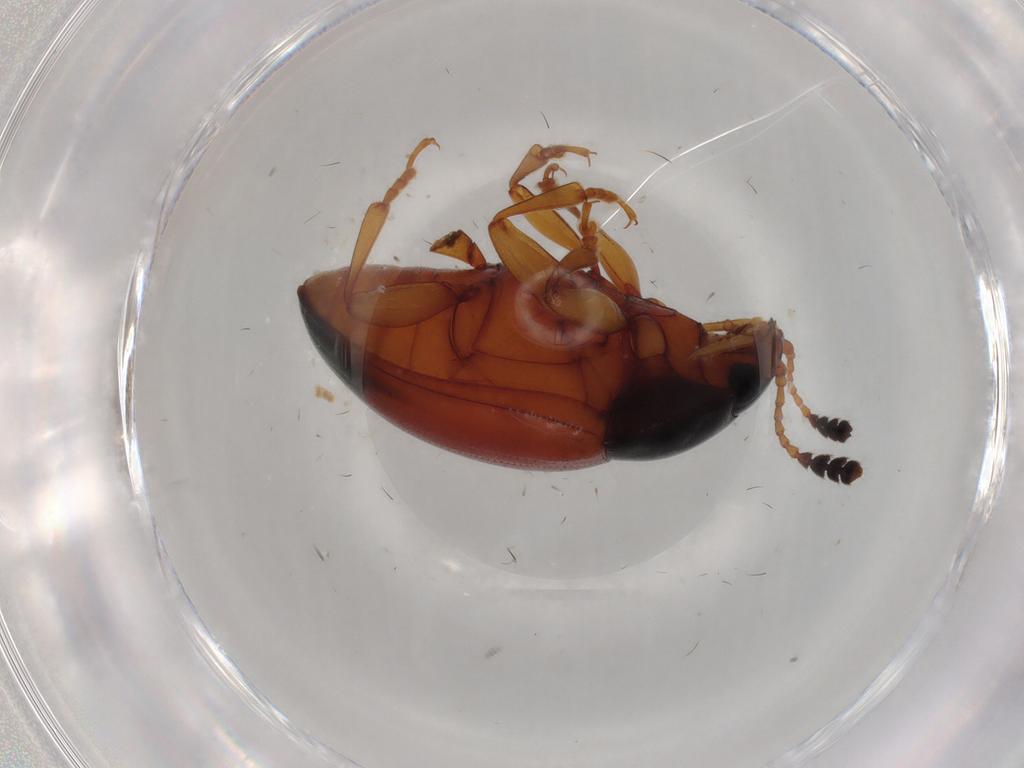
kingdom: Animalia
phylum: Arthropoda
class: Insecta
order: Coleoptera
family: Erotylidae
